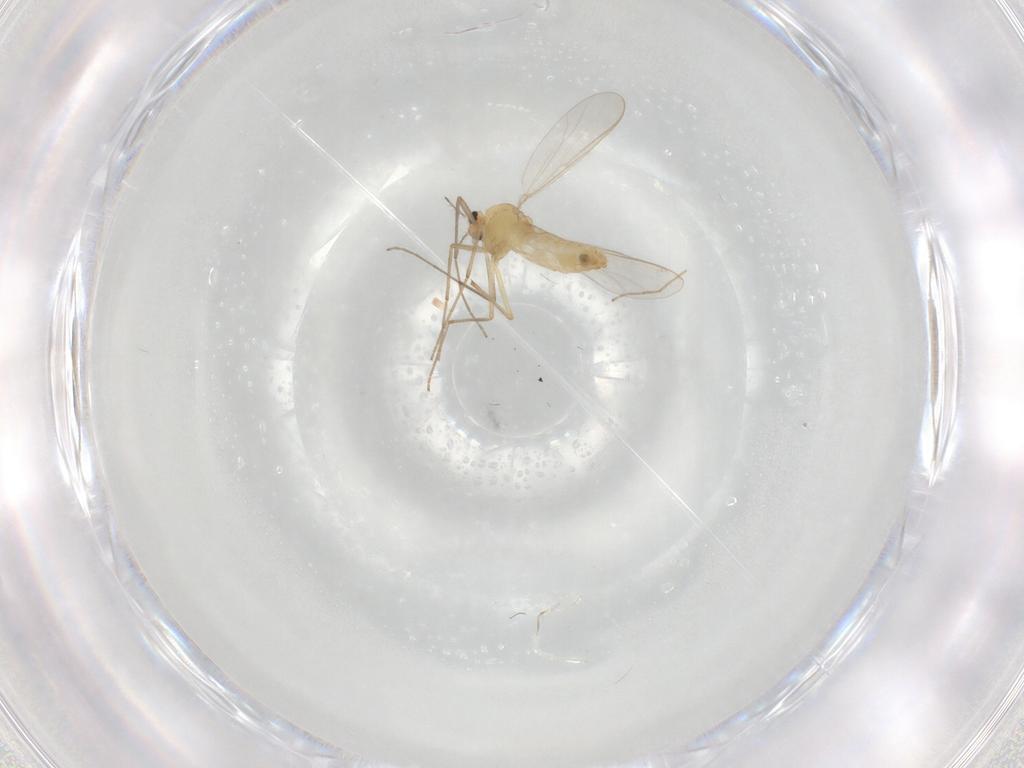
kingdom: Animalia
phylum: Arthropoda
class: Insecta
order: Diptera
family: Chironomidae
